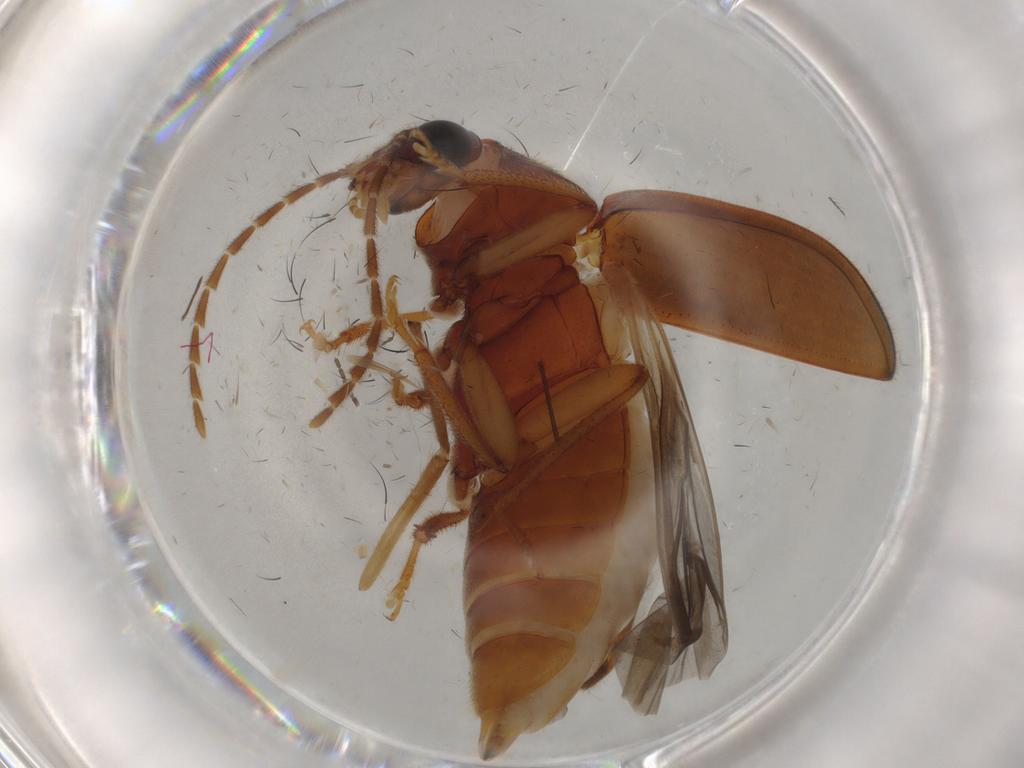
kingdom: Animalia
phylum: Arthropoda
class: Insecta
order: Coleoptera
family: Ptilodactylidae
